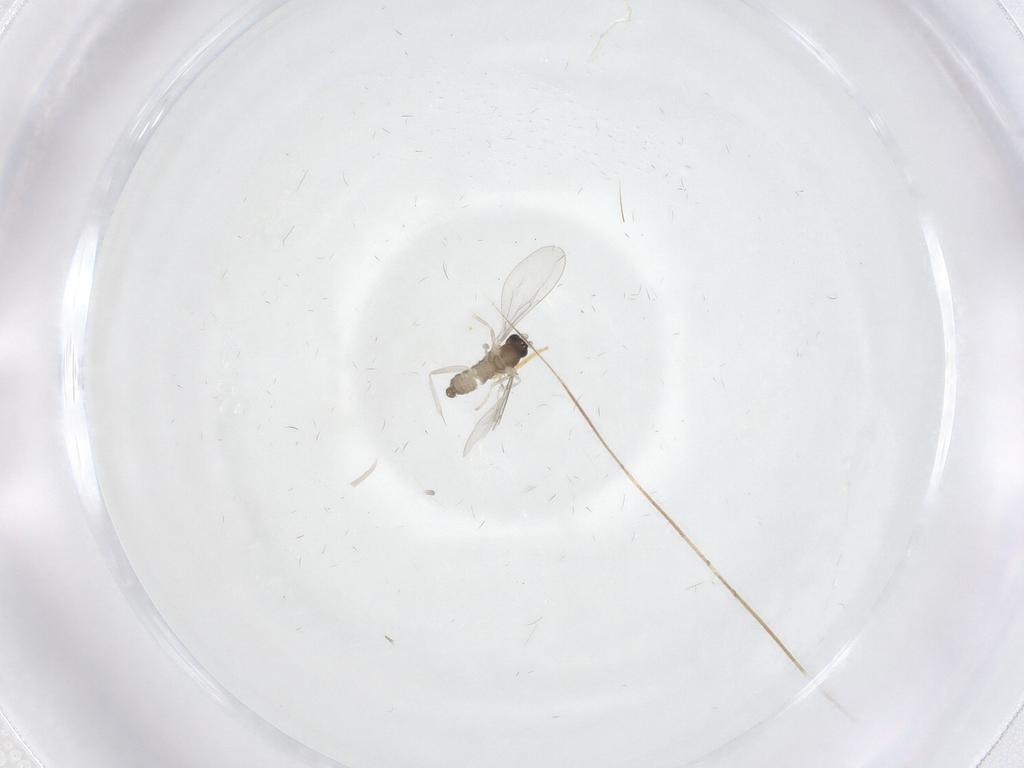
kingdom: Animalia
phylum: Arthropoda
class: Insecta
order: Diptera
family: Cecidomyiidae
